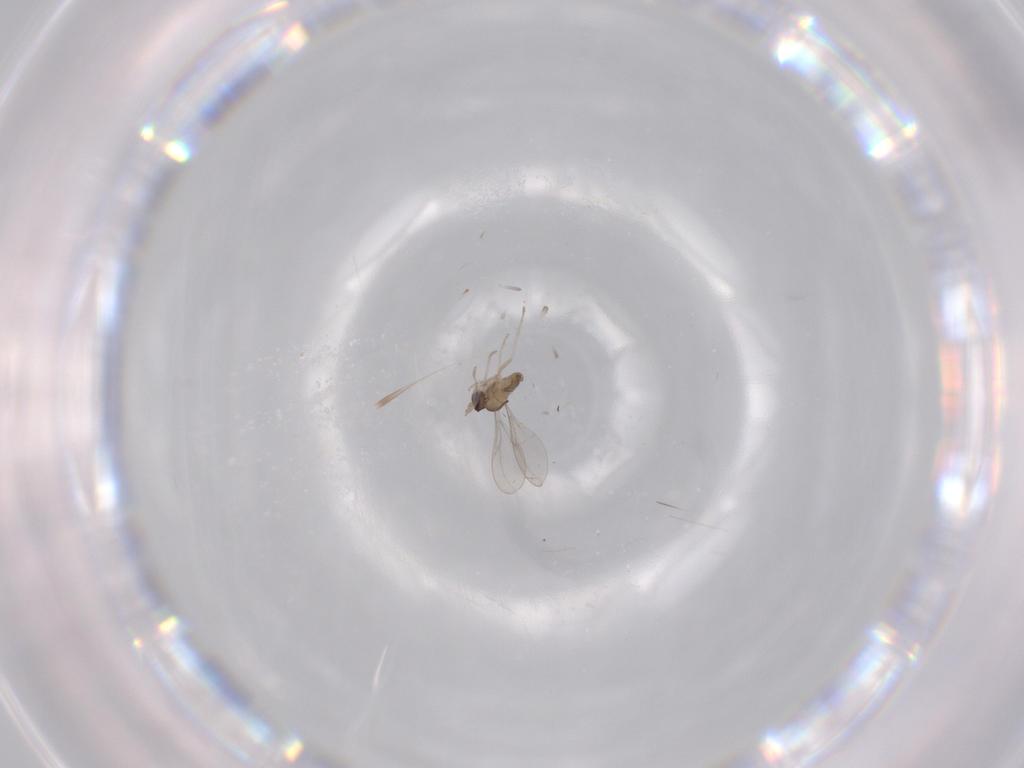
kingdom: Animalia
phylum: Arthropoda
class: Insecta
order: Diptera
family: Cecidomyiidae
